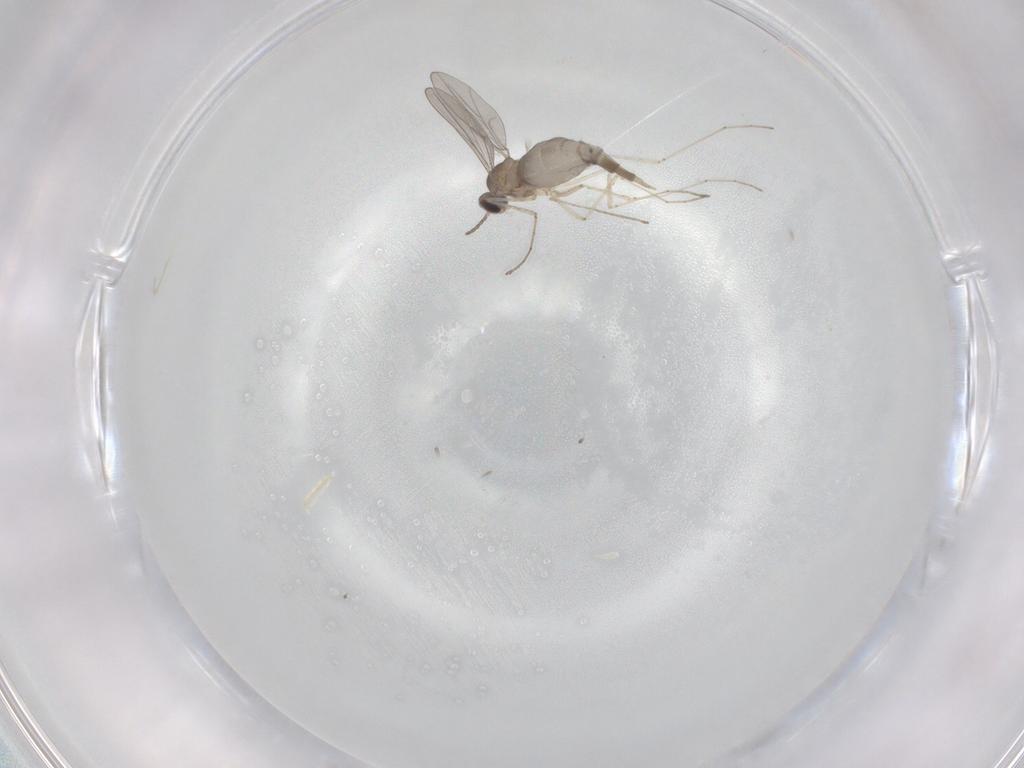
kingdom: Animalia
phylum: Arthropoda
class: Insecta
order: Diptera
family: Cecidomyiidae
